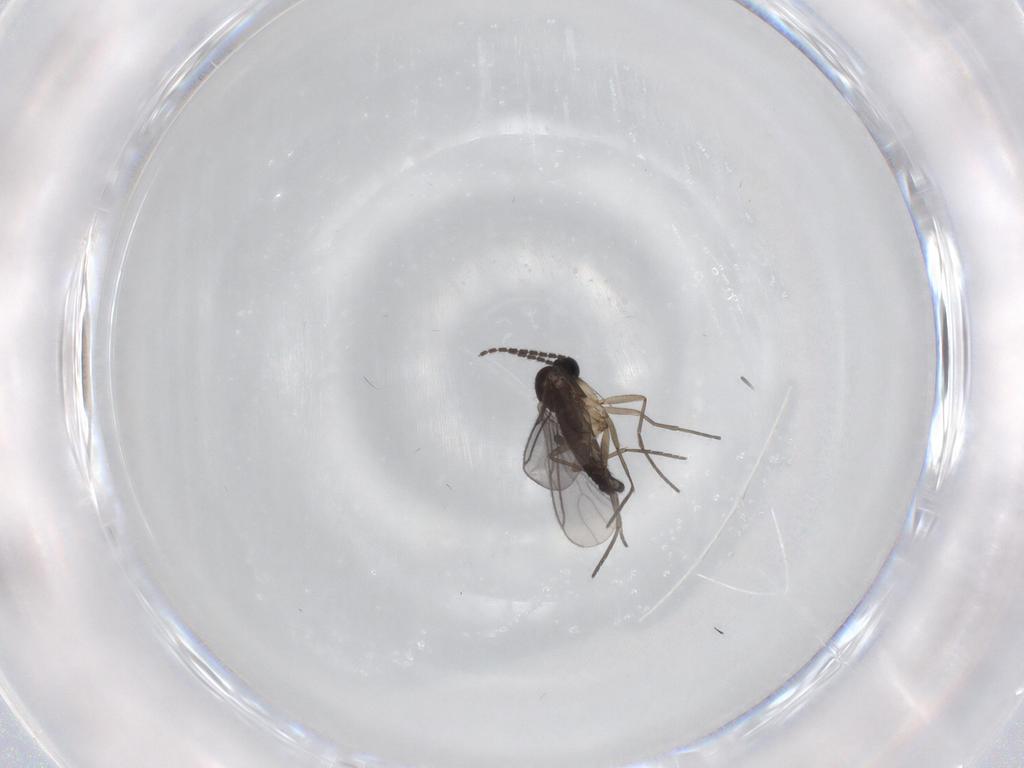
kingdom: Animalia
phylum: Arthropoda
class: Insecta
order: Diptera
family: Sciaridae
